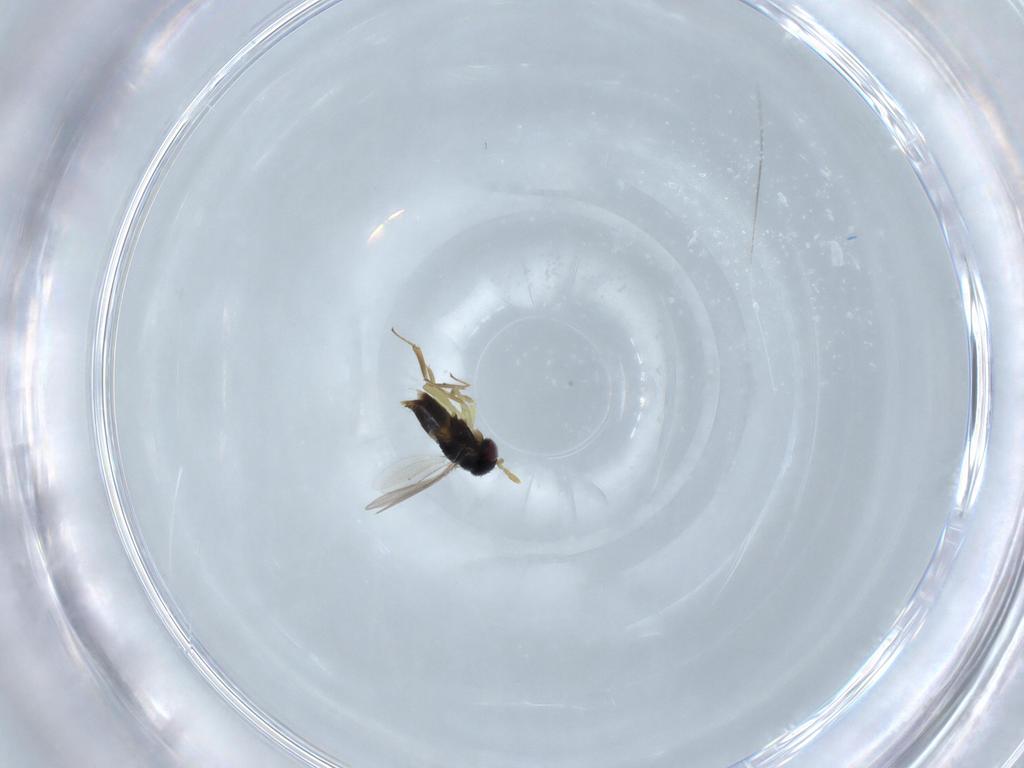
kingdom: Animalia
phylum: Arthropoda
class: Insecta
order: Hymenoptera
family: Aphelinidae
